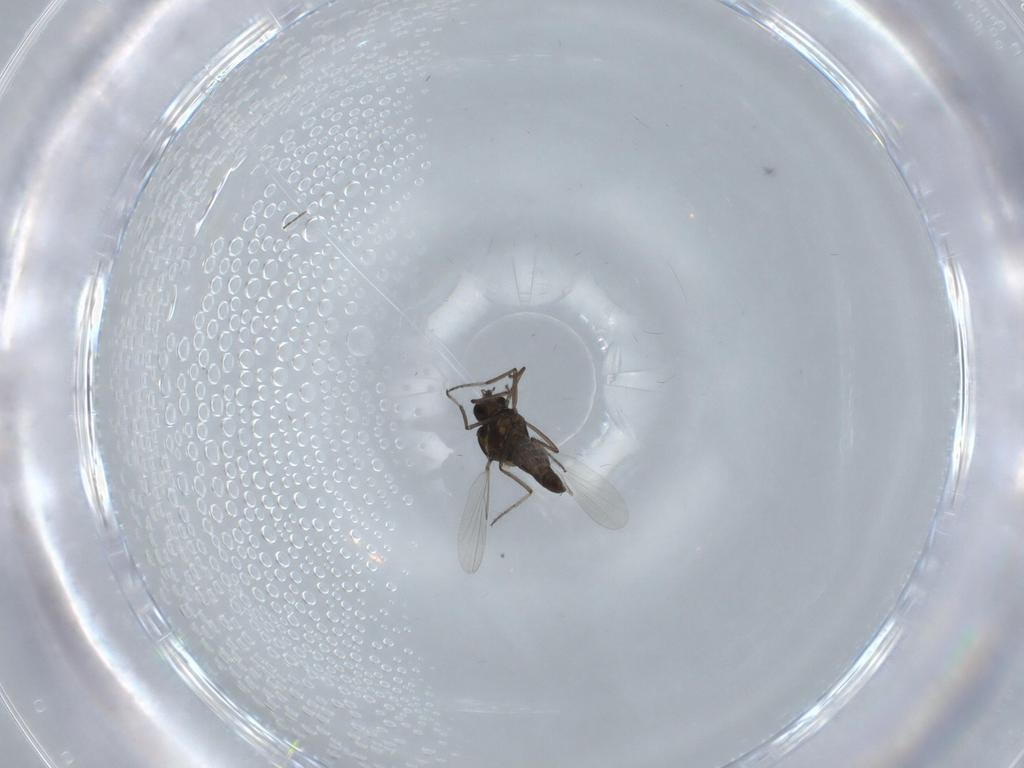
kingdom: Animalia
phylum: Arthropoda
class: Insecta
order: Diptera
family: Ceratopogonidae
